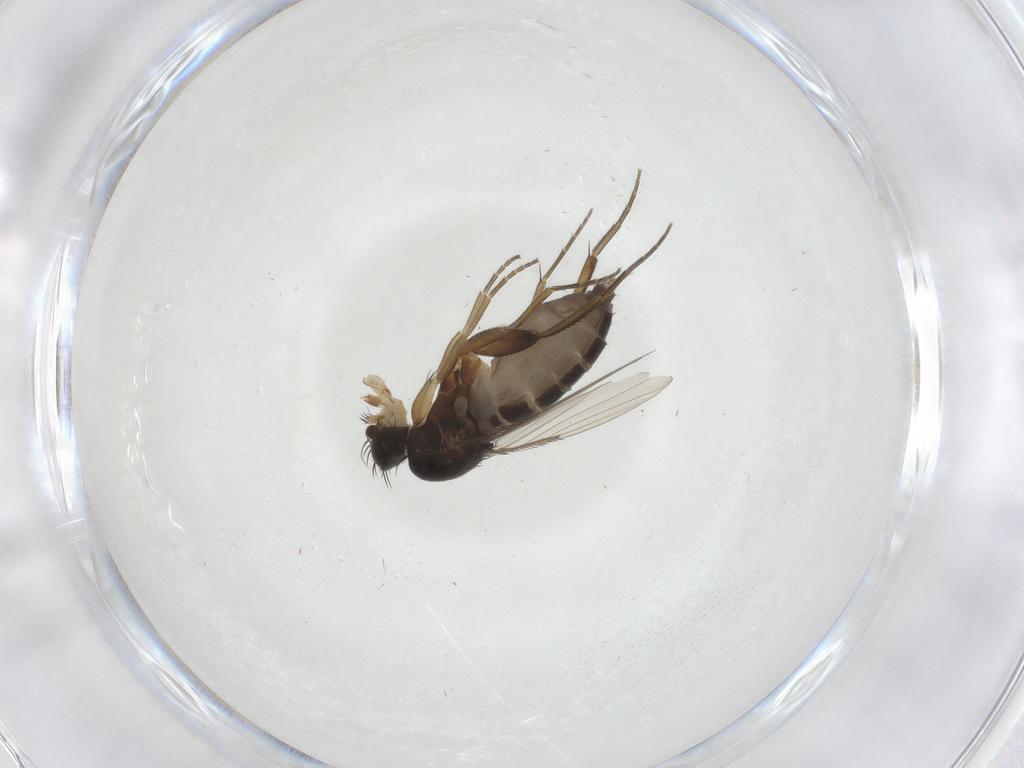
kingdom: Animalia
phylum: Arthropoda
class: Insecta
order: Diptera
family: Phoridae
